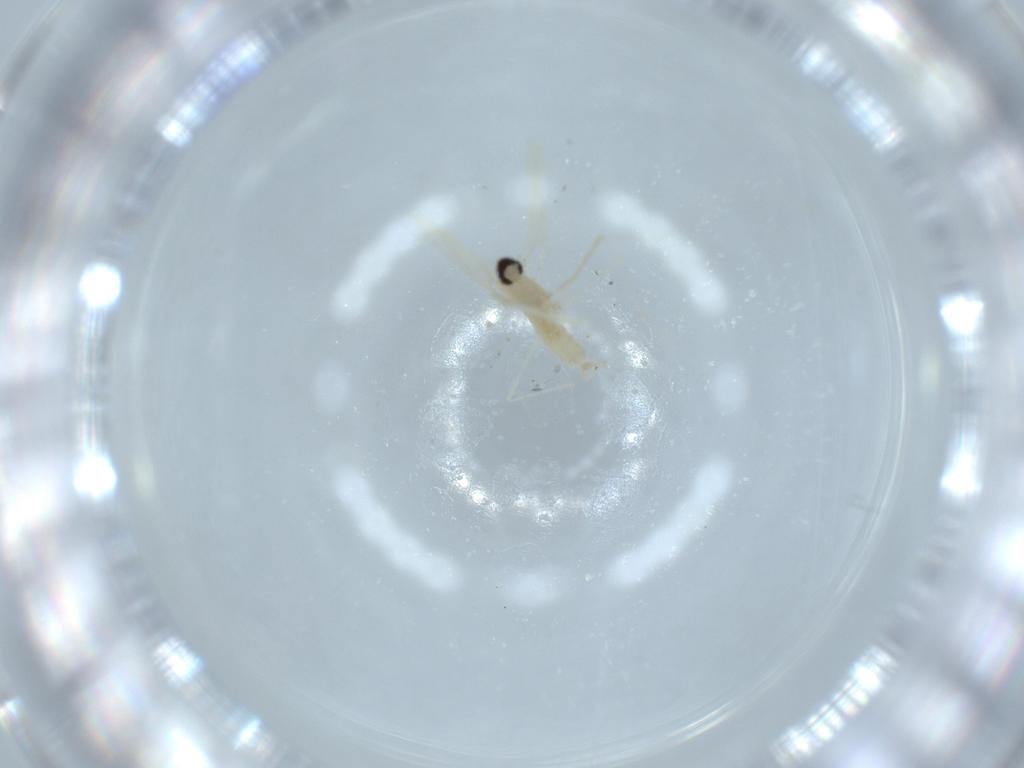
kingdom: Animalia
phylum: Arthropoda
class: Insecta
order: Diptera
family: Cecidomyiidae
